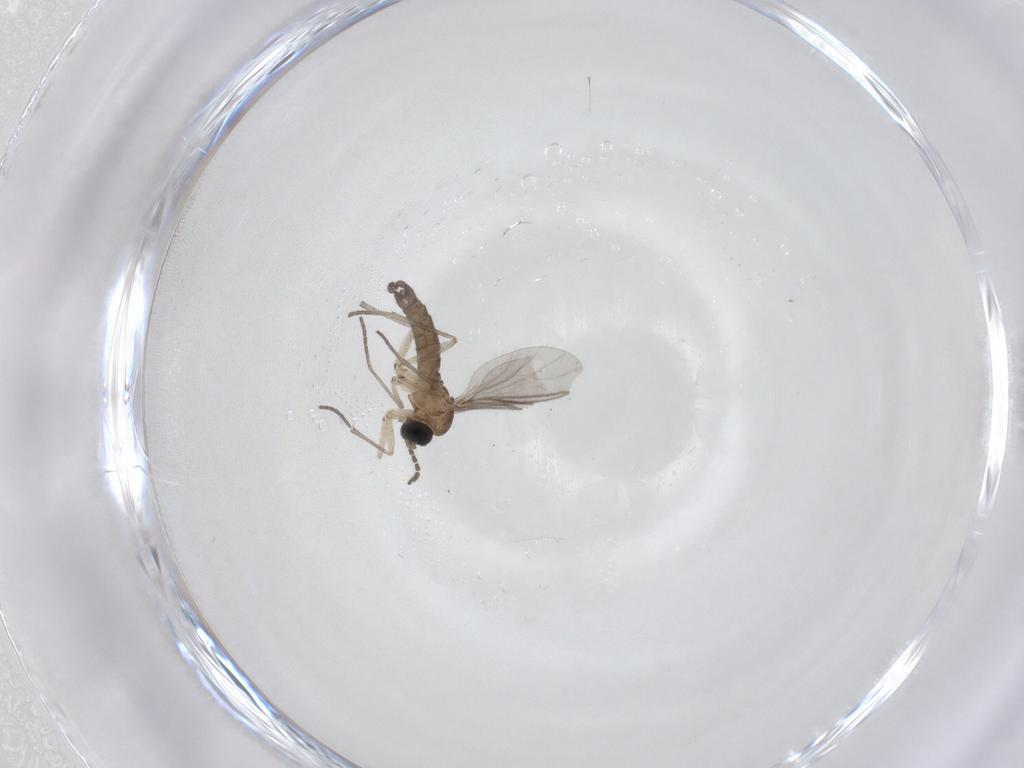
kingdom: Animalia
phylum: Arthropoda
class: Insecta
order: Diptera
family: Sciaridae
